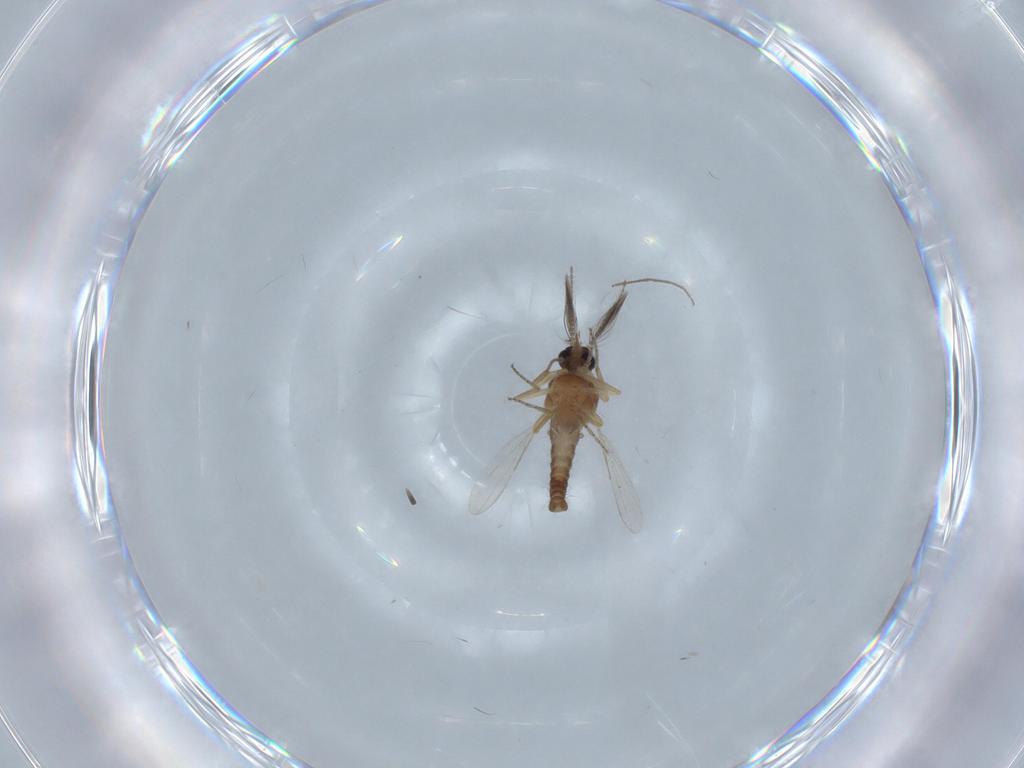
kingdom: Animalia
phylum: Arthropoda
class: Insecta
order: Diptera
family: Ceratopogonidae
